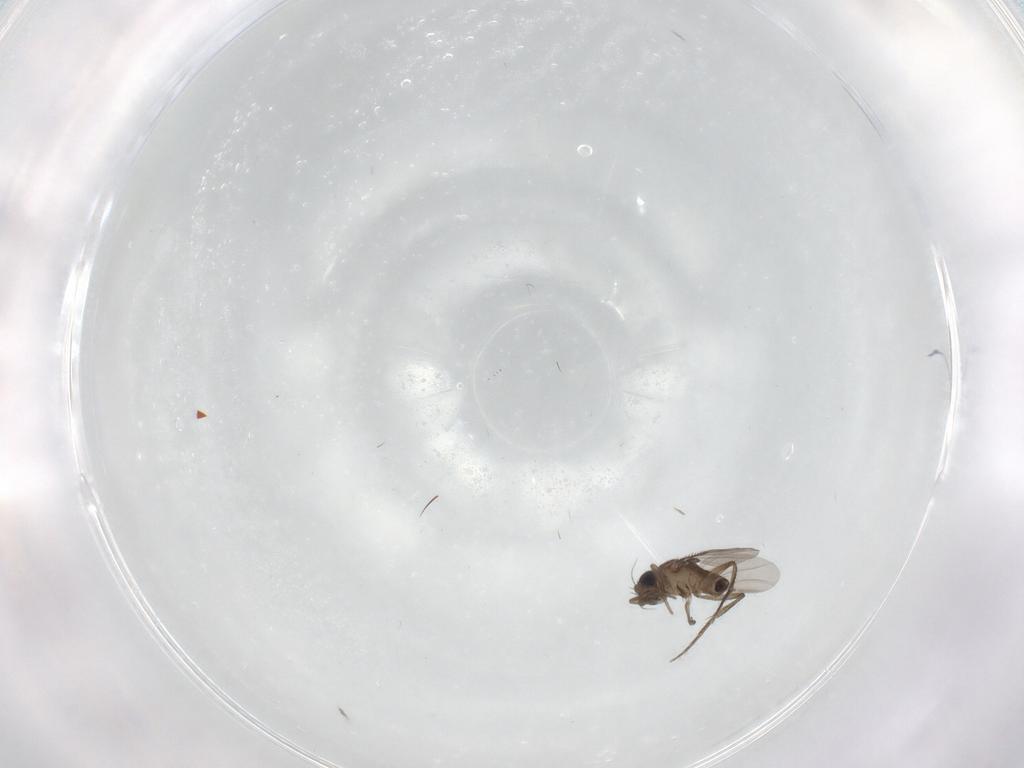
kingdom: Animalia
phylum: Arthropoda
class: Insecta
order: Diptera
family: Phoridae
